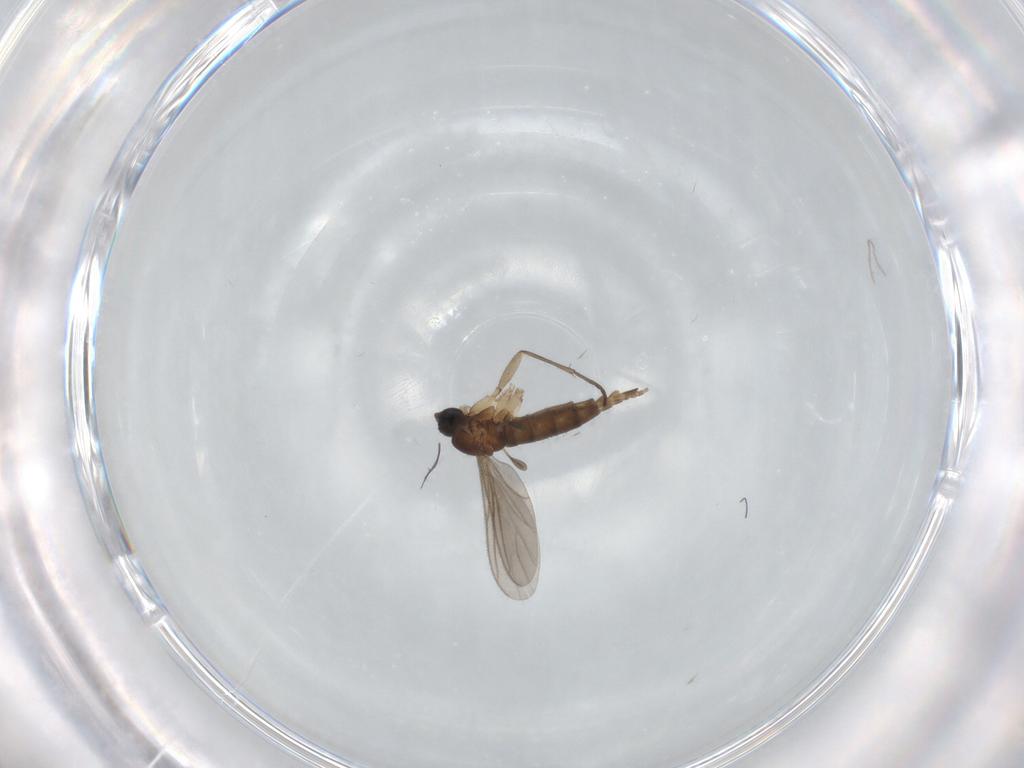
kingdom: Animalia
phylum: Arthropoda
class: Insecta
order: Diptera
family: Sciaridae
